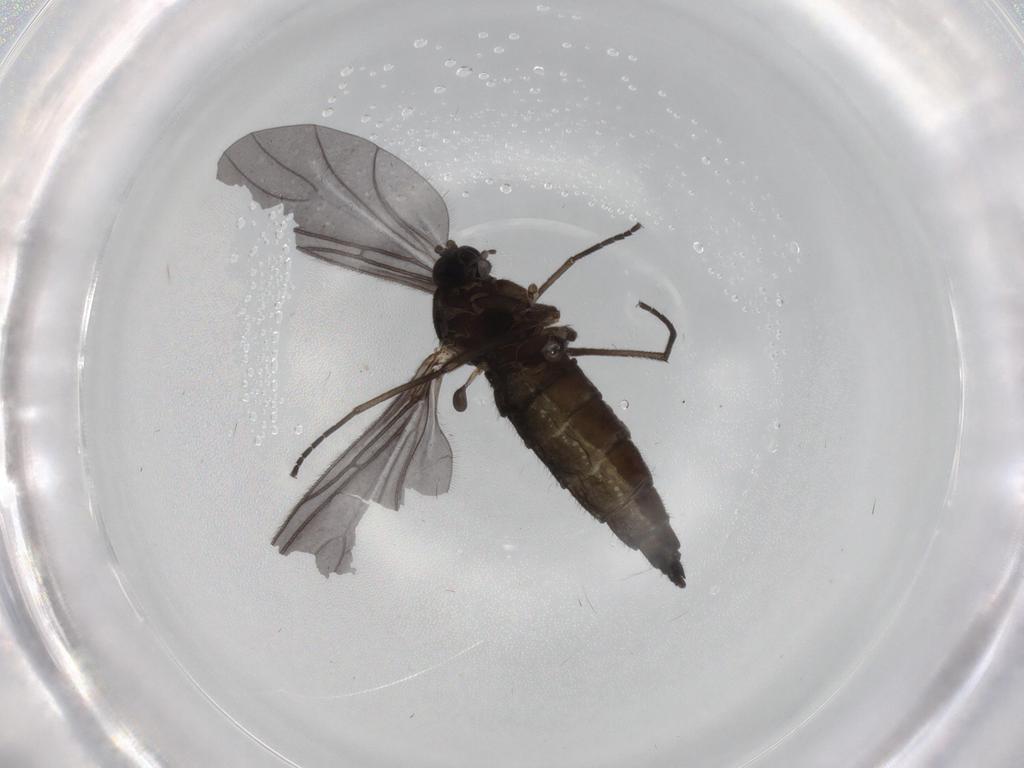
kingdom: Animalia
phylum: Arthropoda
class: Insecta
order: Diptera
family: Sciaridae
